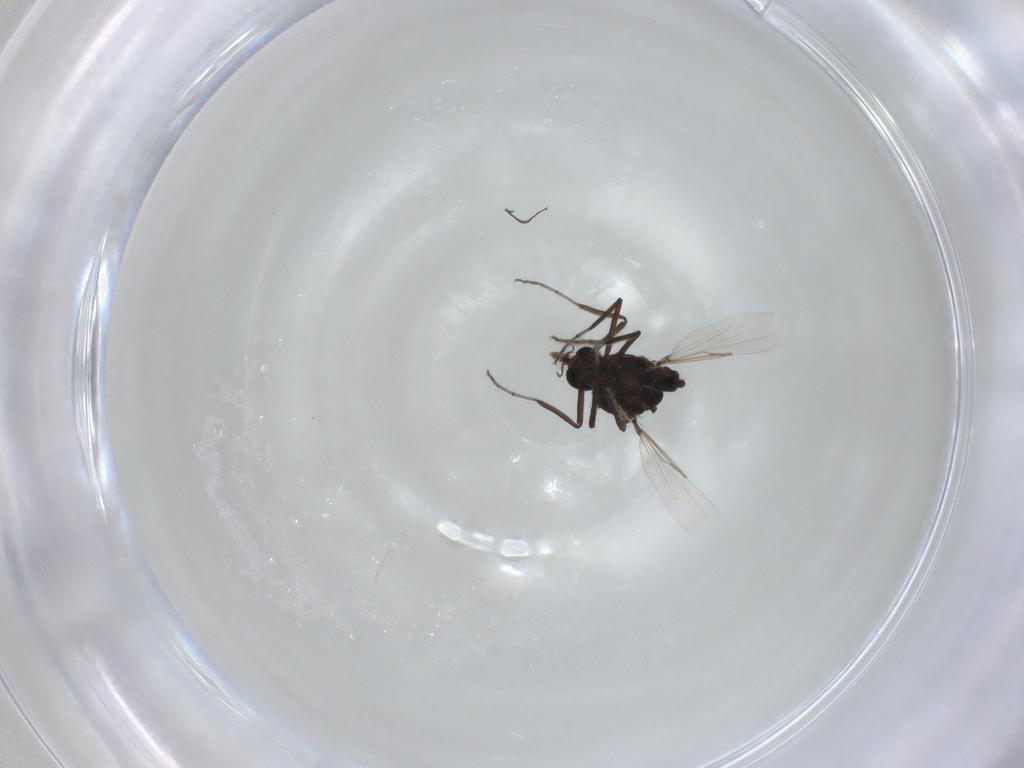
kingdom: Animalia
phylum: Arthropoda
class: Insecta
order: Diptera
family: Ceratopogonidae
